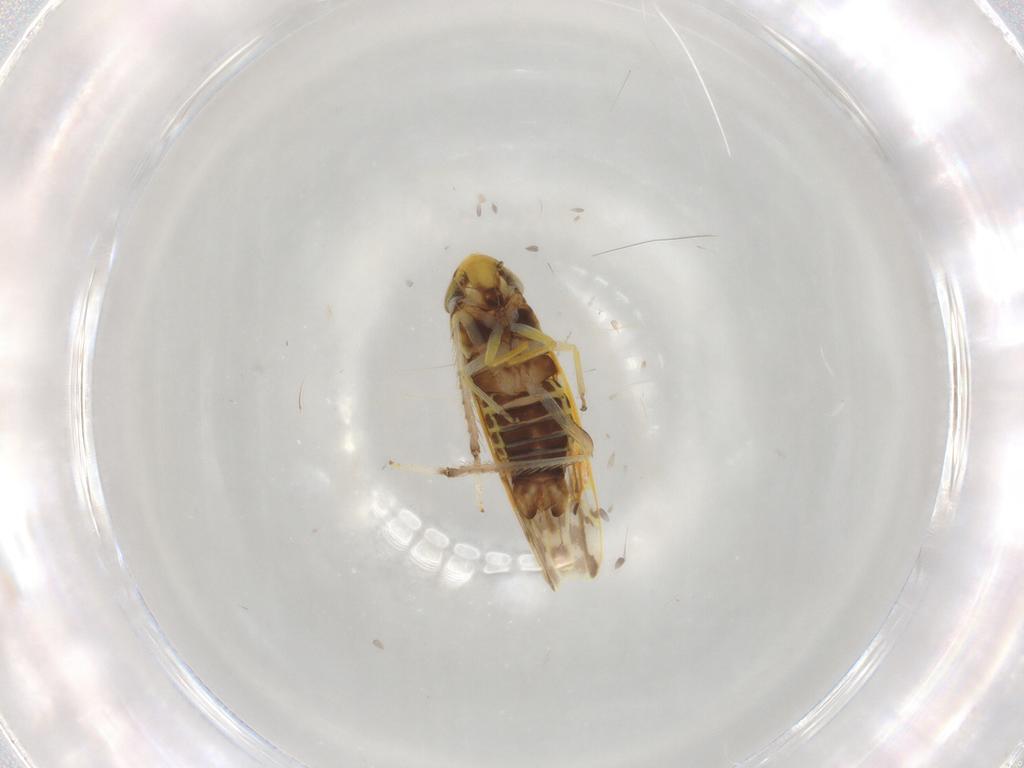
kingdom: Animalia
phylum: Arthropoda
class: Insecta
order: Hemiptera
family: Cicadellidae
